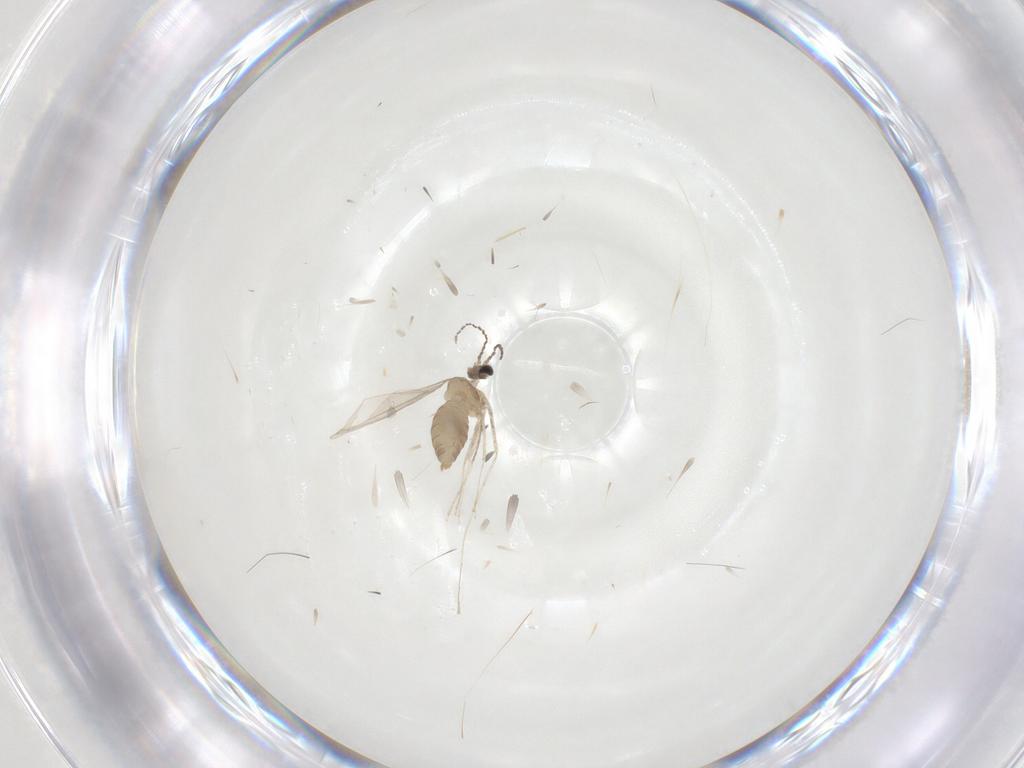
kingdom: Animalia
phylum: Arthropoda
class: Insecta
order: Diptera
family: Cecidomyiidae
